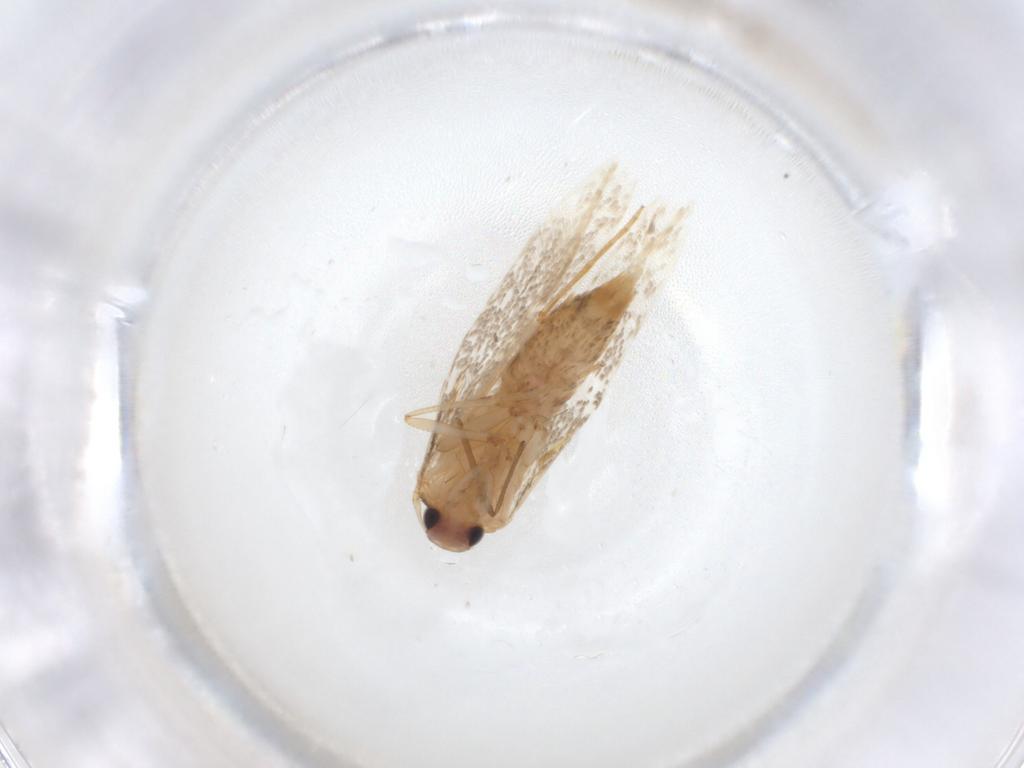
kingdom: Animalia
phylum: Arthropoda
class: Insecta
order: Lepidoptera
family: Cosmopterigidae
